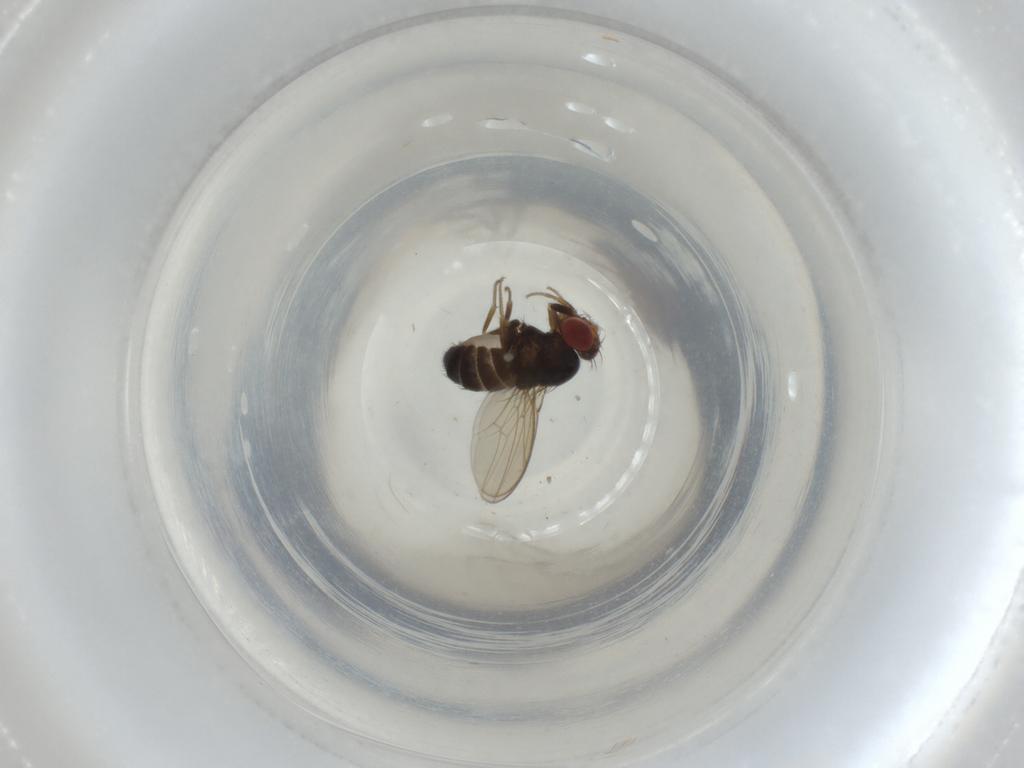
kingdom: Animalia
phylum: Arthropoda
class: Insecta
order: Diptera
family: Drosophilidae
